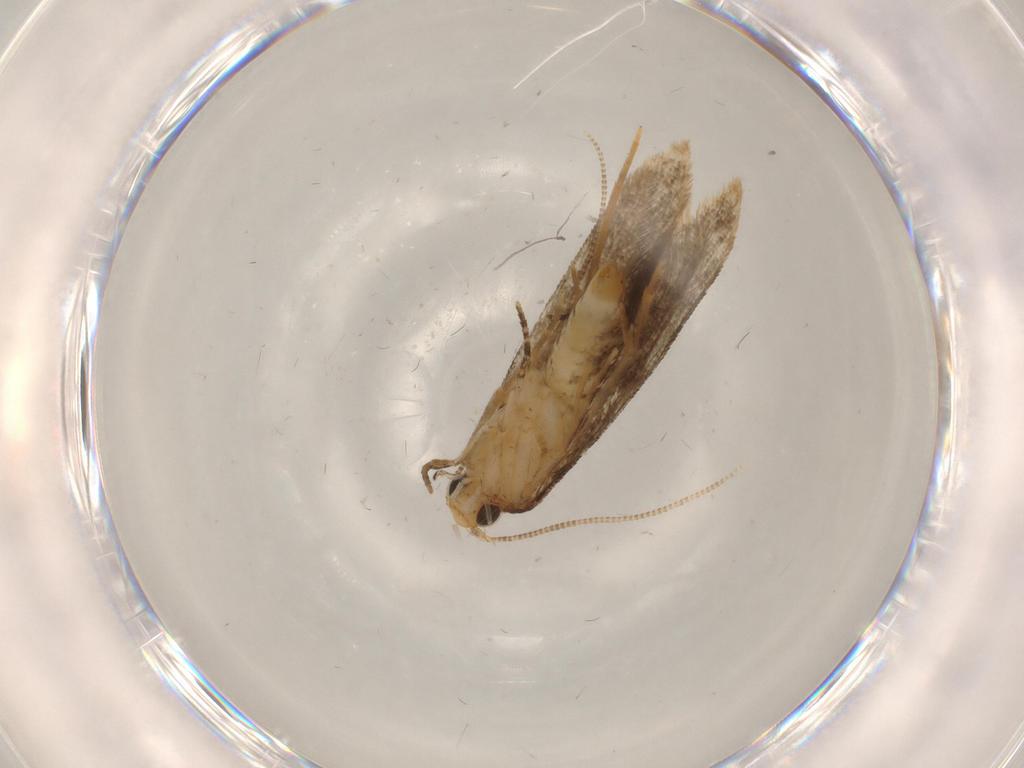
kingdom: Animalia
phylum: Arthropoda
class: Insecta
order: Lepidoptera
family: Tineidae
